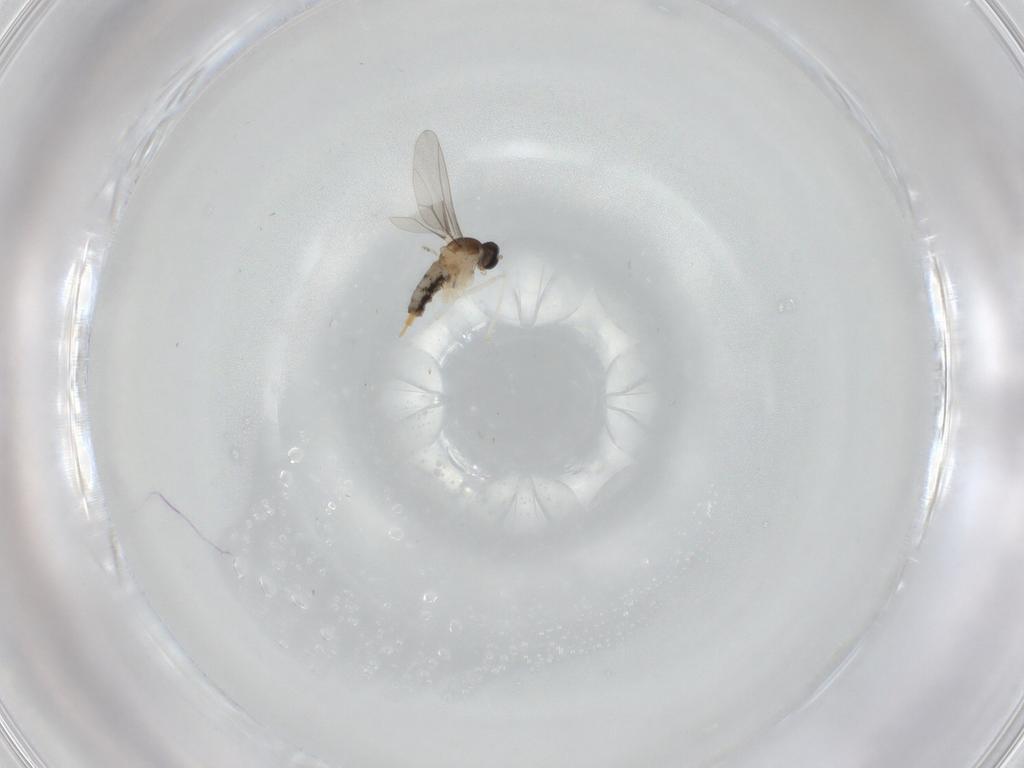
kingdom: Animalia
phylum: Arthropoda
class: Insecta
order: Diptera
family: Cecidomyiidae
